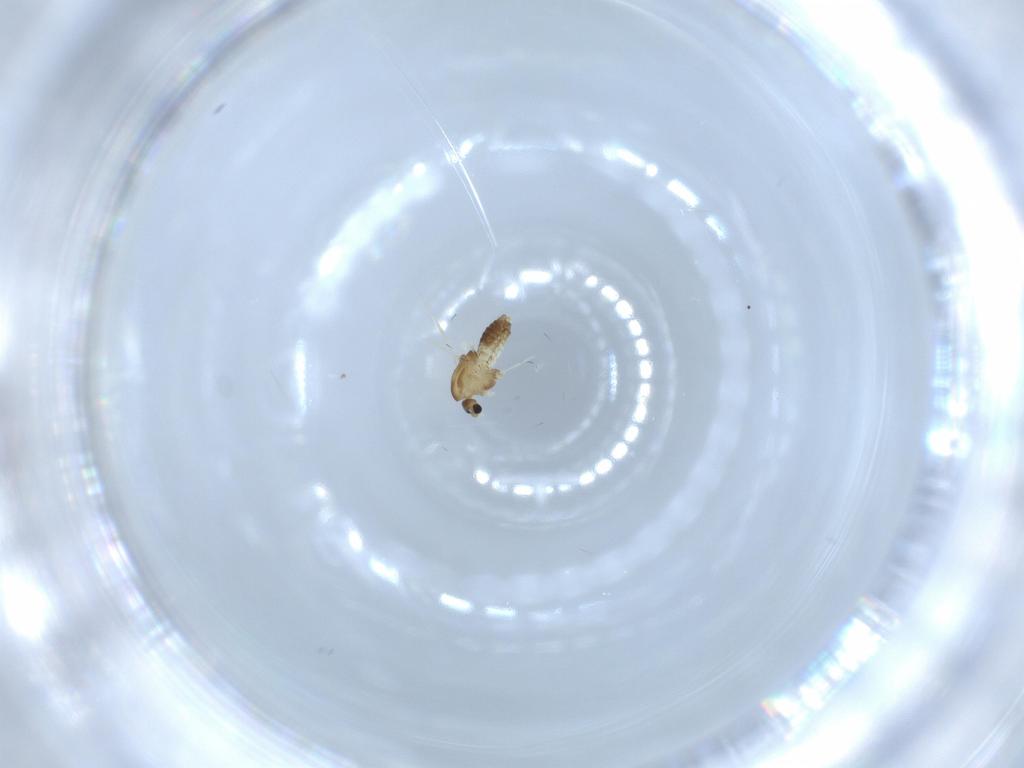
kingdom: Animalia
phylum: Arthropoda
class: Insecta
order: Diptera
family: Chironomidae
